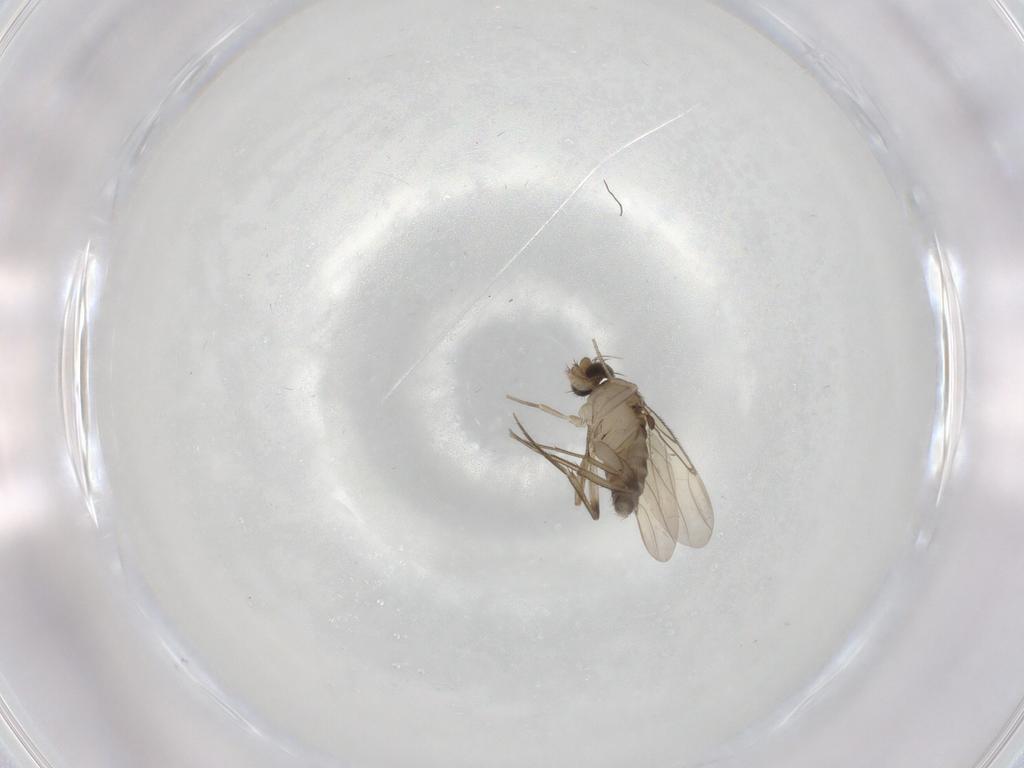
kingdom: Animalia
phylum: Arthropoda
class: Insecta
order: Diptera
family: Phoridae
